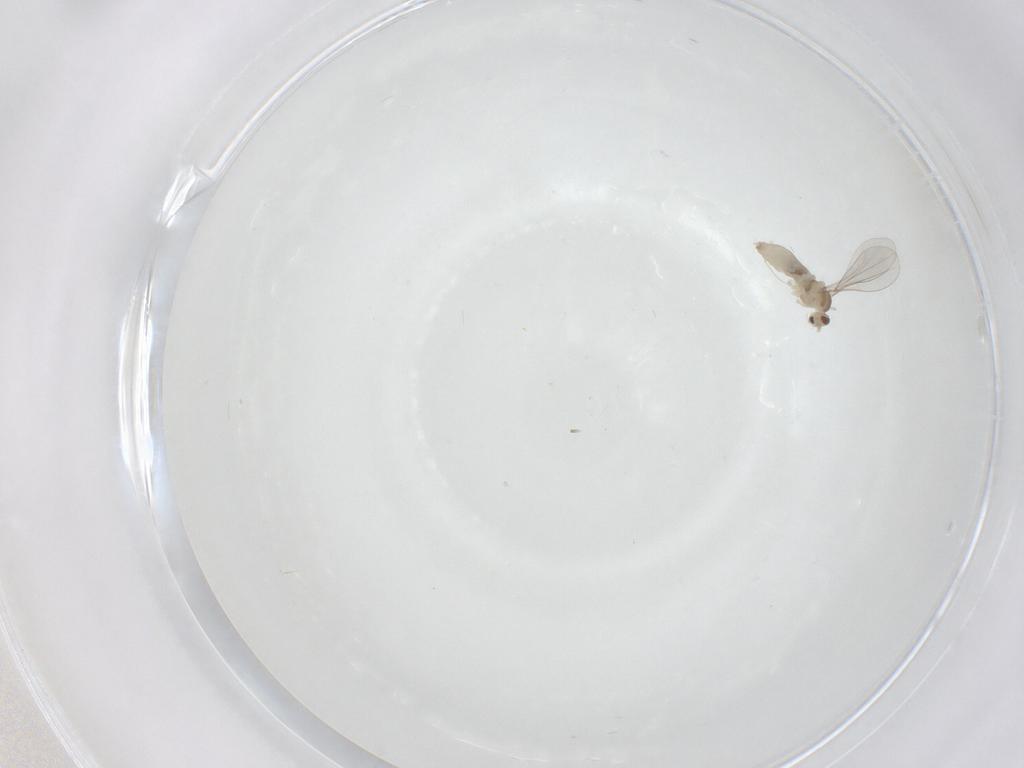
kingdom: Animalia
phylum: Arthropoda
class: Insecta
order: Diptera
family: Cecidomyiidae
